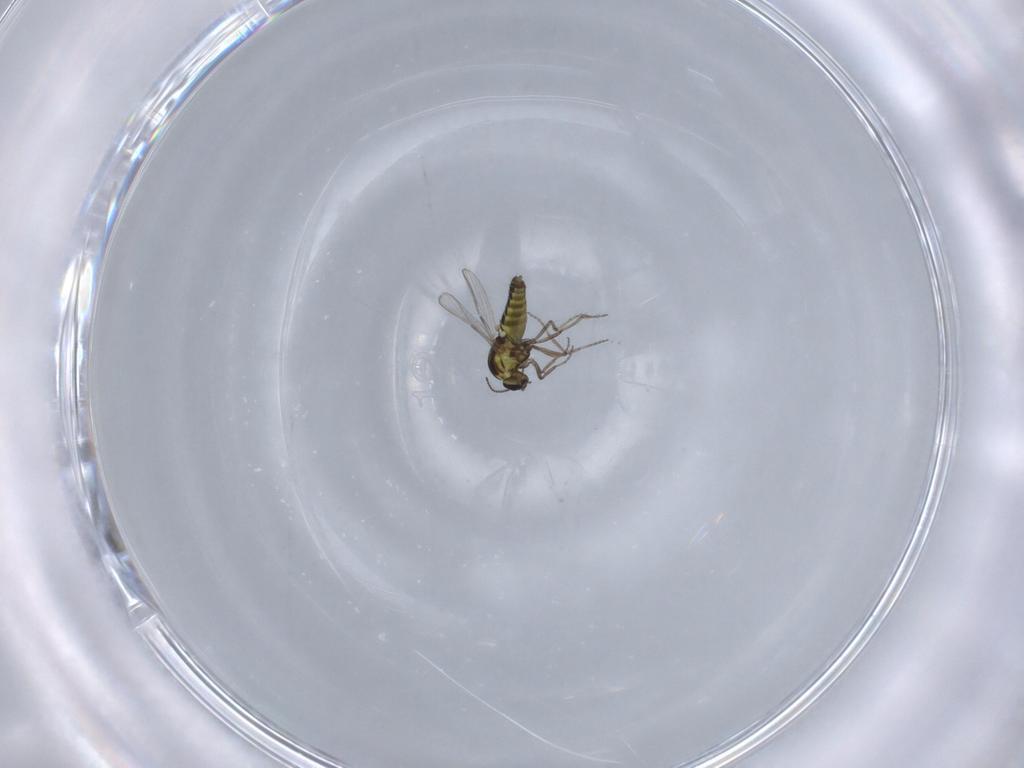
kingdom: Animalia
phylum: Arthropoda
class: Insecta
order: Diptera
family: Ceratopogonidae
